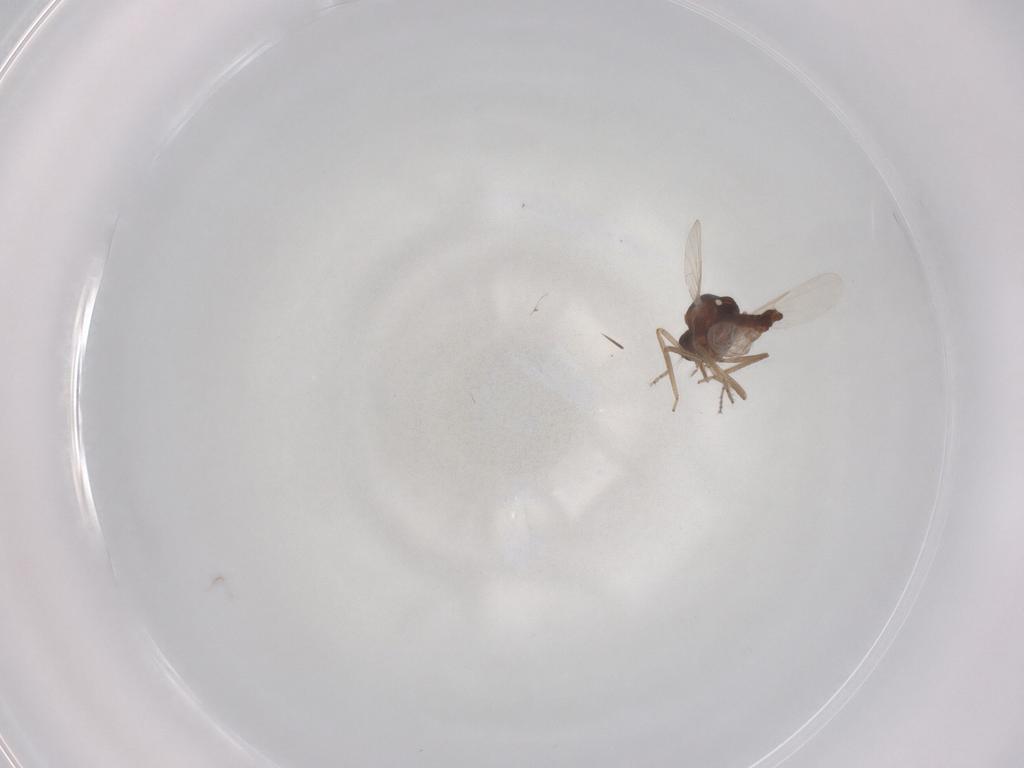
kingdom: Animalia
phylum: Arthropoda
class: Insecta
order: Diptera
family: Ceratopogonidae
